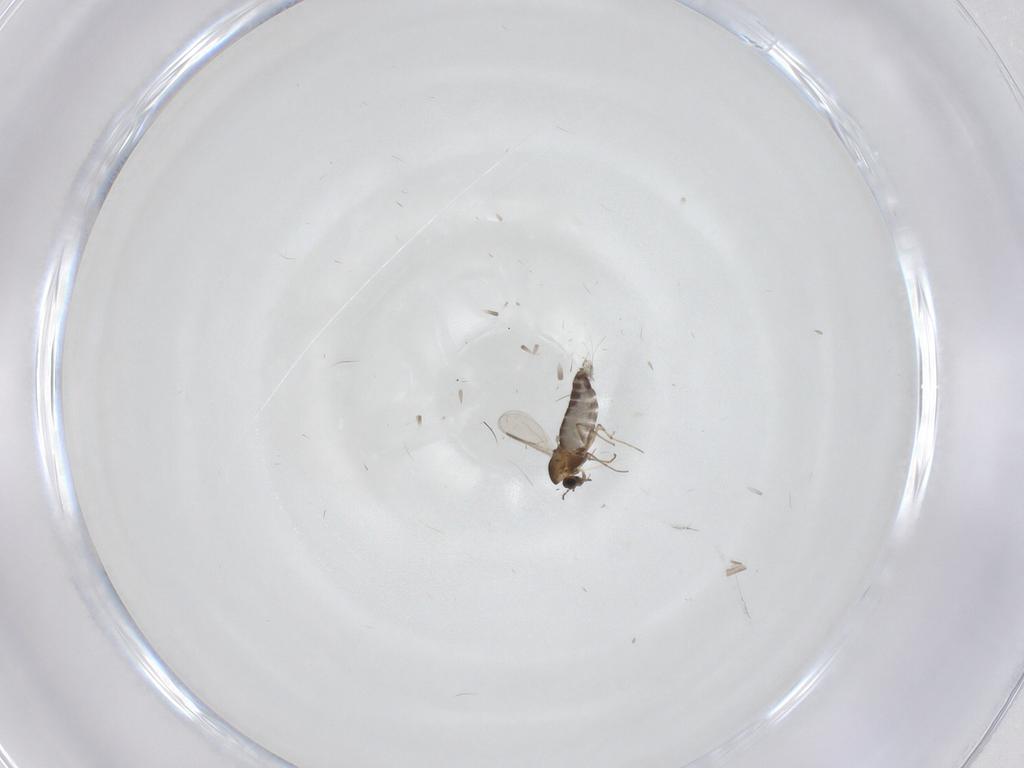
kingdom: Animalia
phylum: Arthropoda
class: Insecta
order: Diptera
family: Chironomidae
